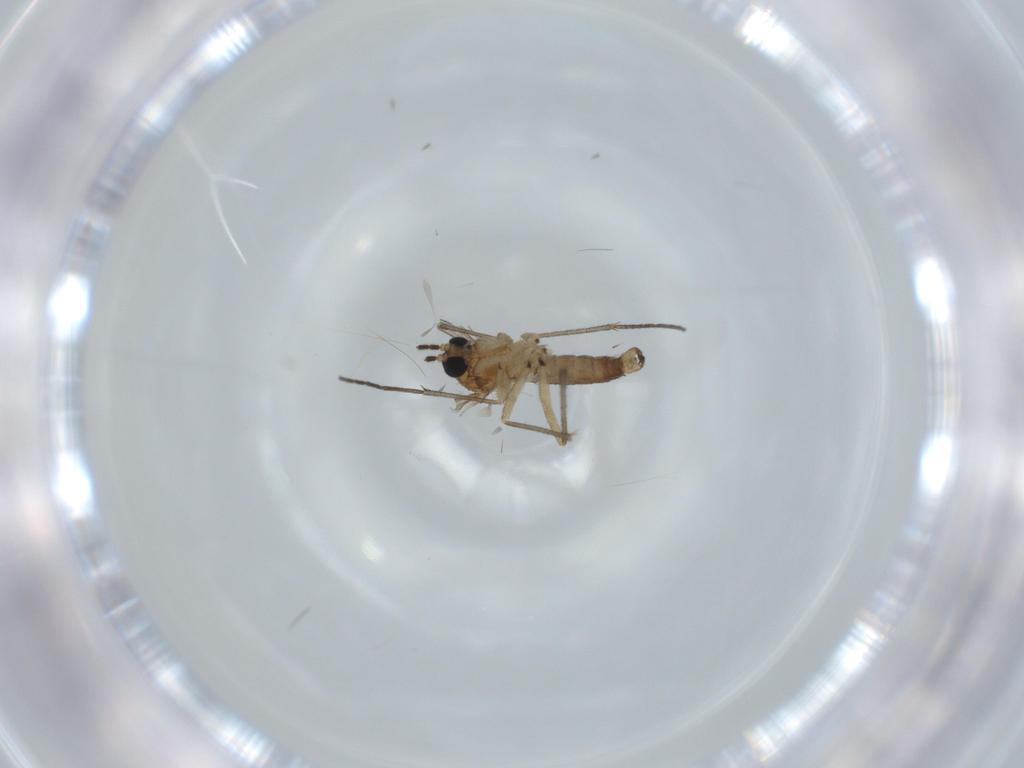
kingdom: Animalia
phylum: Arthropoda
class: Insecta
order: Diptera
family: Sciaridae
